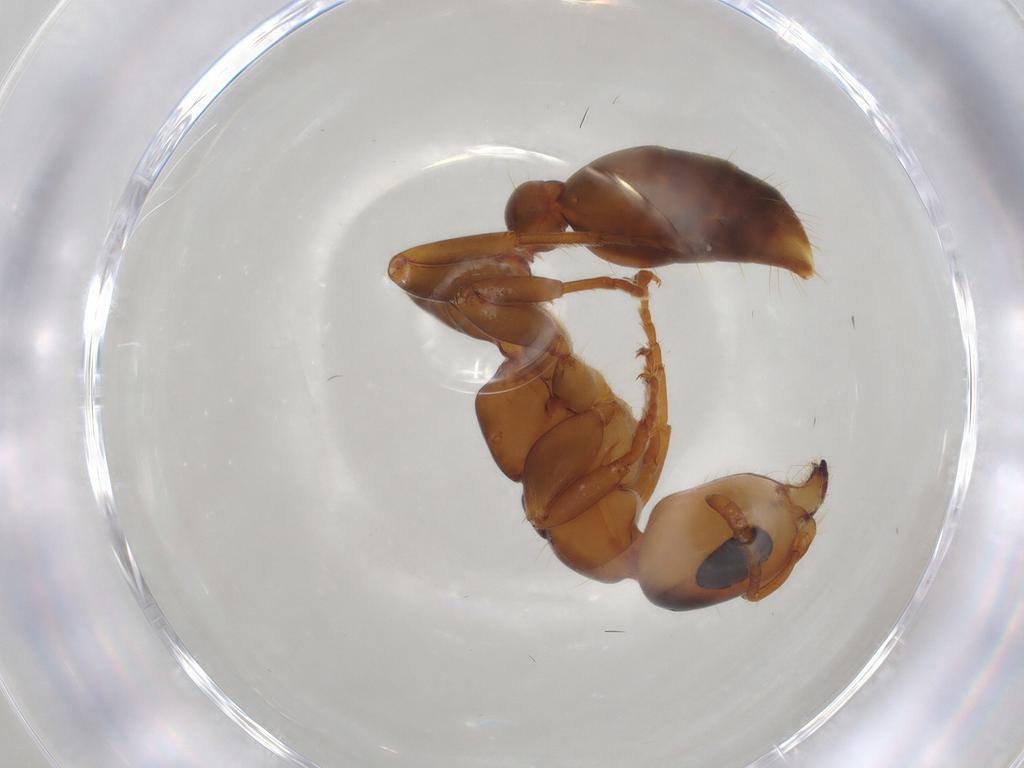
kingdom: Animalia
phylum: Arthropoda
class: Insecta
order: Hymenoptera
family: Formicidae
